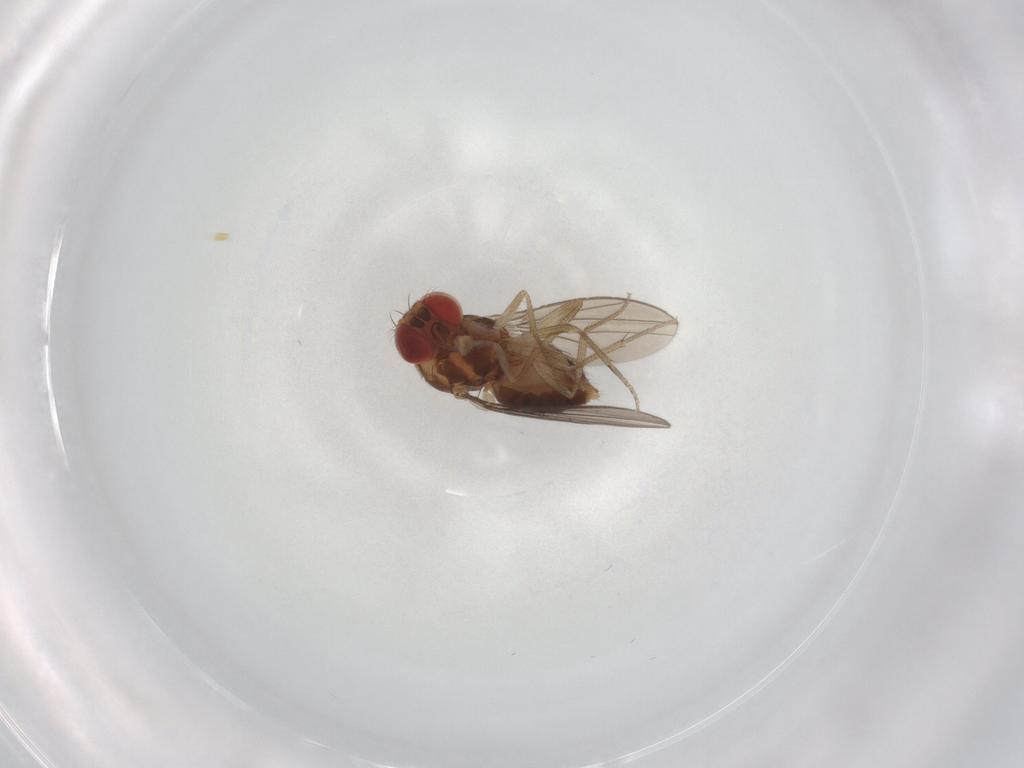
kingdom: Animalia
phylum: Arthropoda
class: Insecta
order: Diptera
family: Drosophilidae
